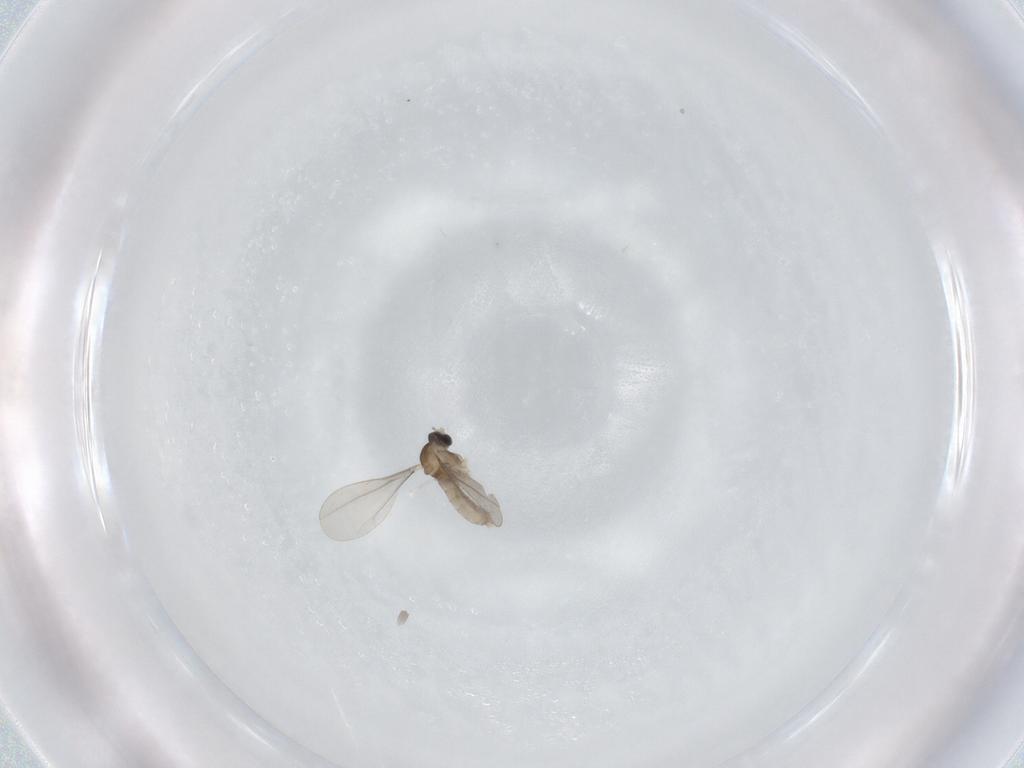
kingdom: Animalia
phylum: Arthropoda
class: Insecta
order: Diptera
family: Cecidomyiidae
